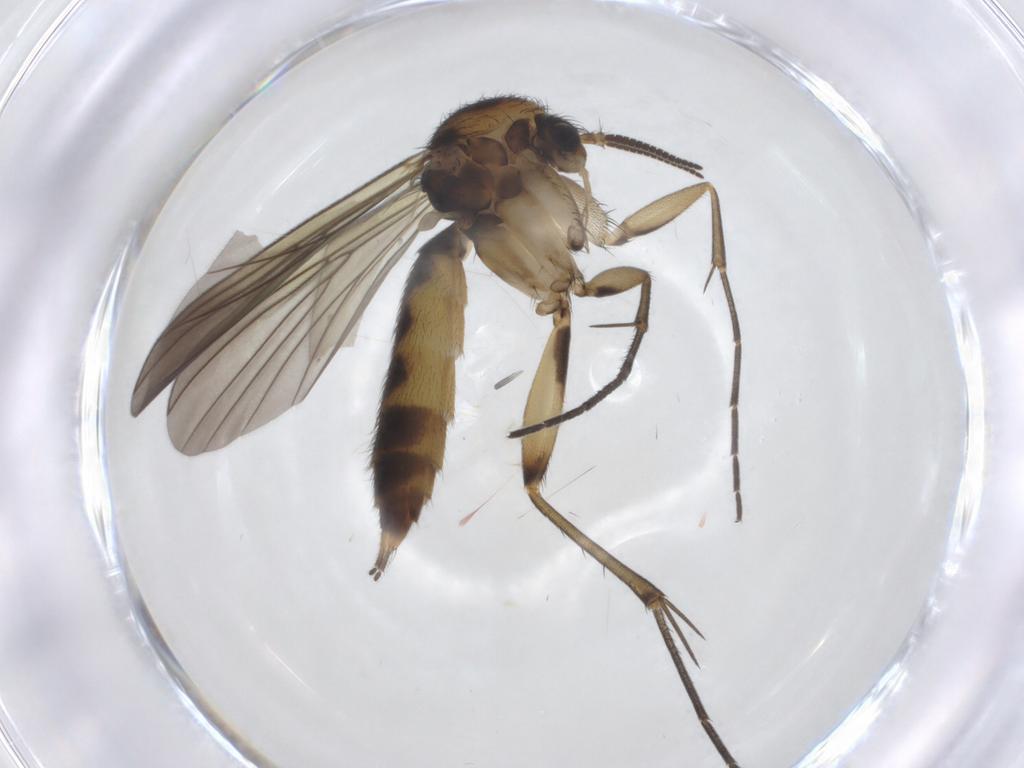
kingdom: Animalia
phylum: Arthropoda
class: Insecta
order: Diptera
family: Mycetophilidae
